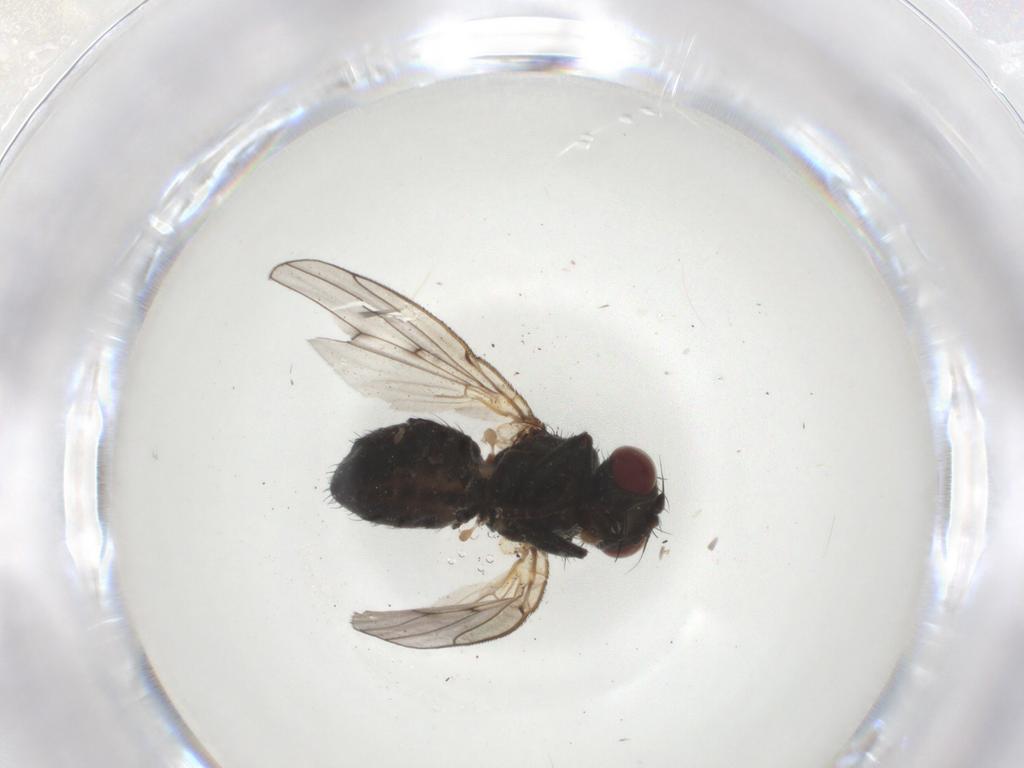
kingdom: Animalia
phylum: Arthropoda
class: Insecta
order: Diptera
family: Muscidae
